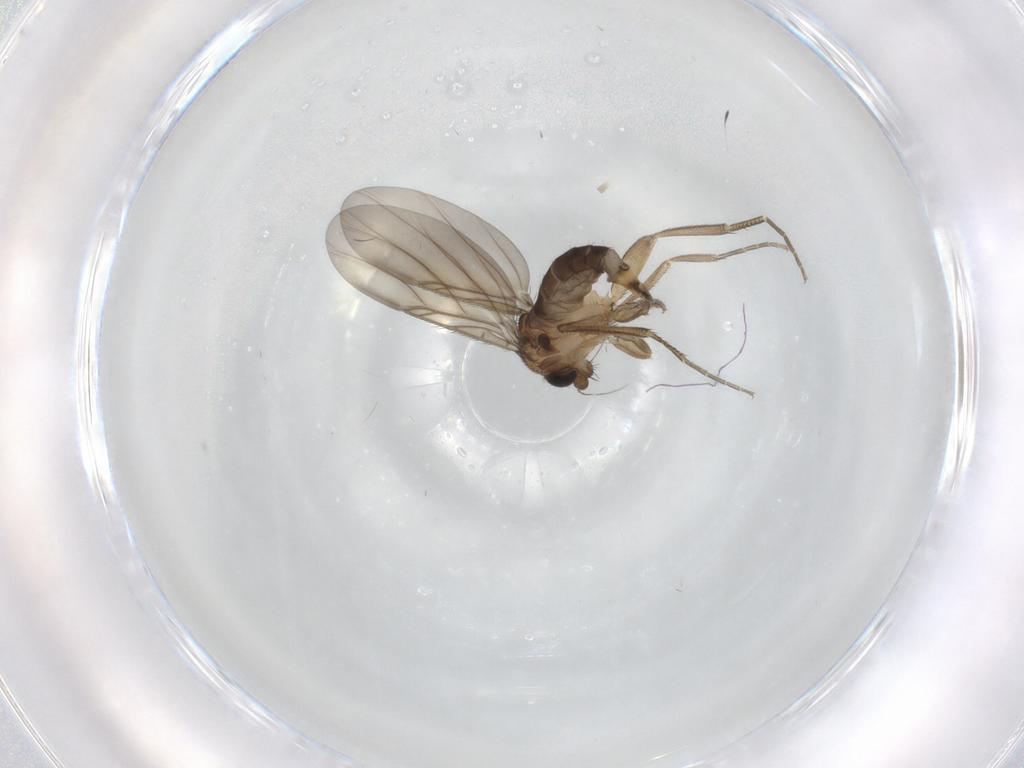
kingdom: Animalia
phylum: Arthropoda
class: Insecta
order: Diptera
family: Phoridae
